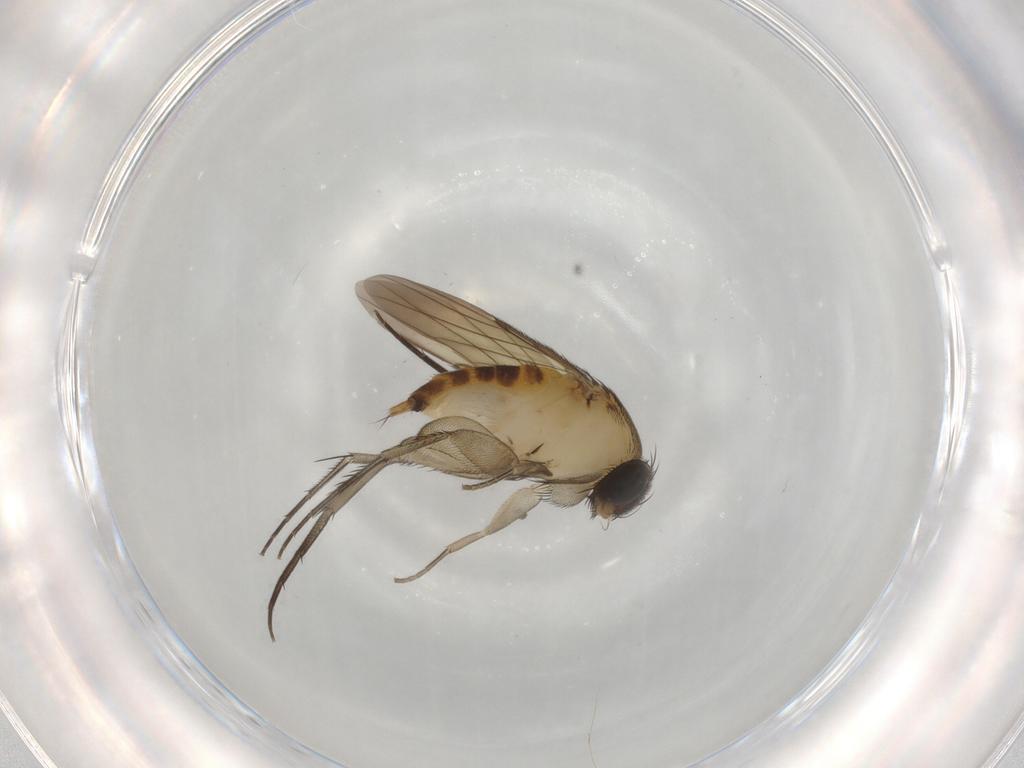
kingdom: Animalia
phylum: Arthropoda
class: Insecta
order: Diptera
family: Phoridae
